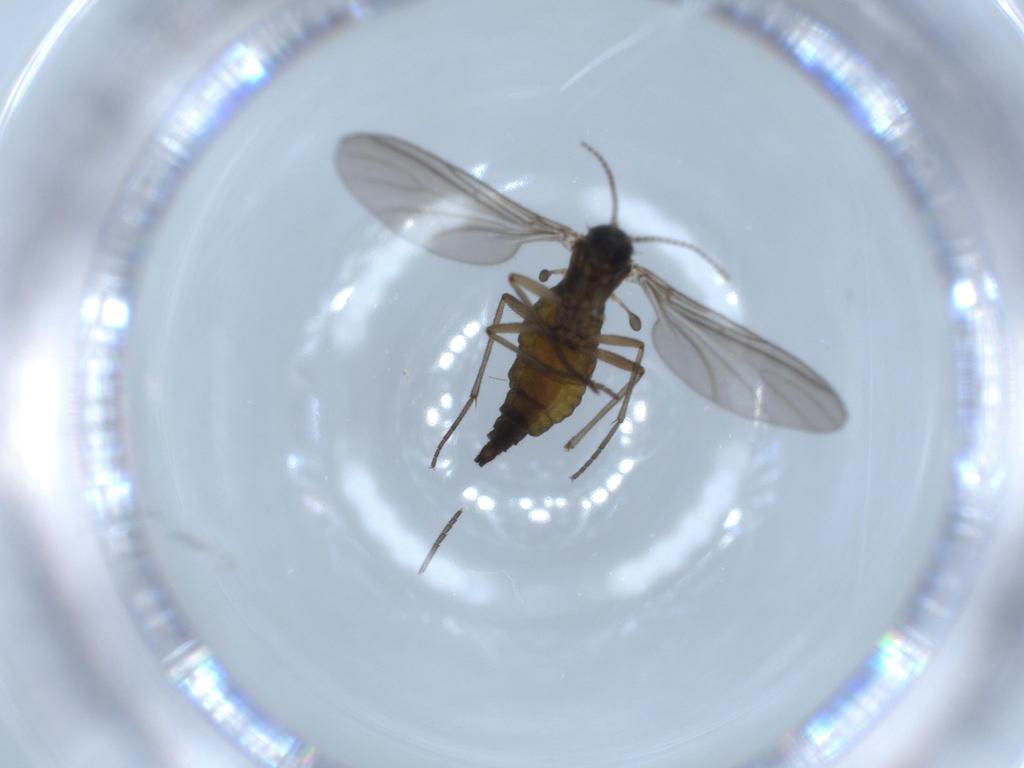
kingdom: Animalia
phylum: Arthropoda
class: Insecta
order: Diptera
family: Sciaridae
